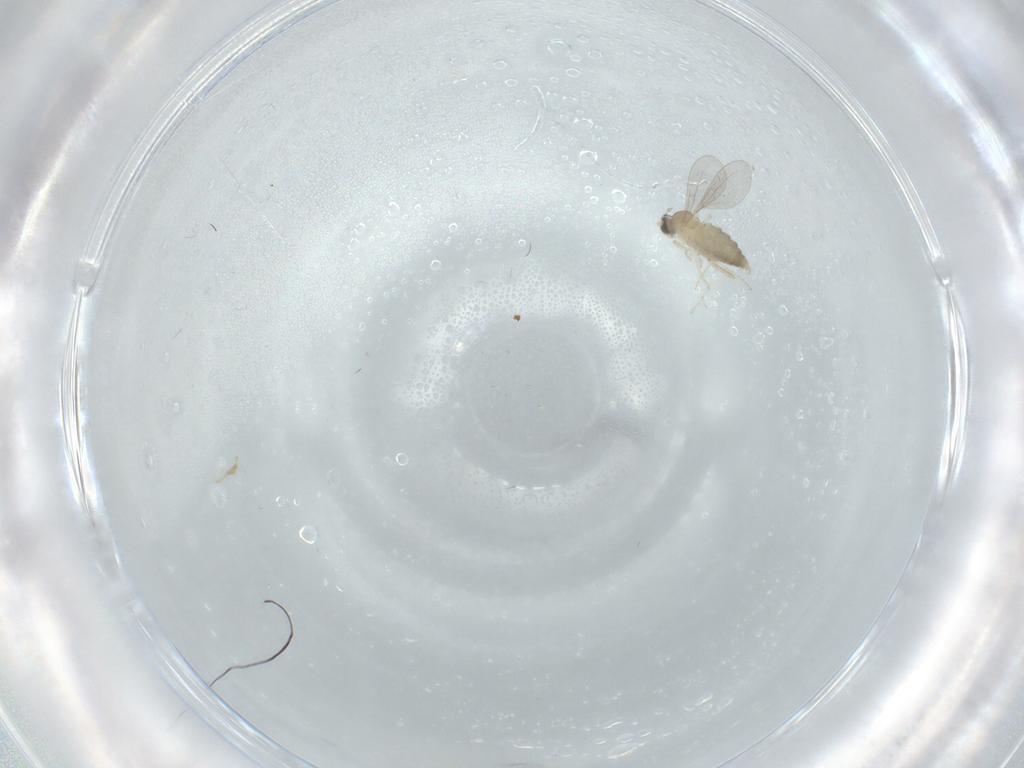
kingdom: Animalia
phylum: Arthropoda
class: Insecta
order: Diptera
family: Cecidomyiidae
